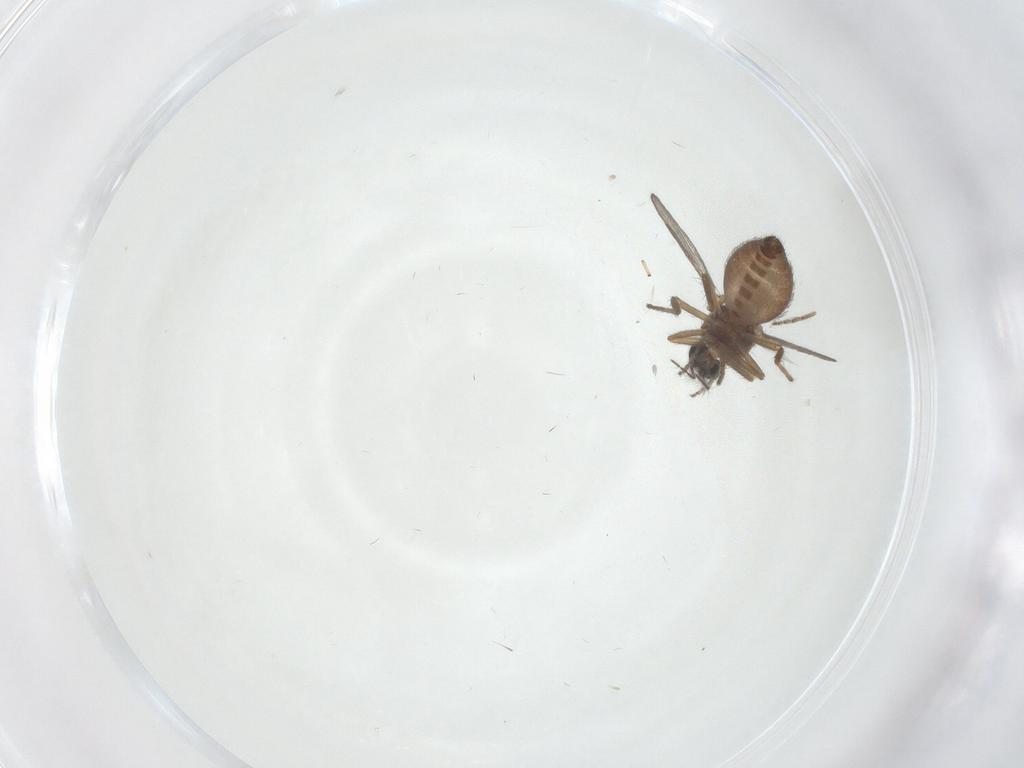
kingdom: Animalia
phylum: Arthropoda
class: Insecta
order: Diptera
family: Ceratopogonidae
